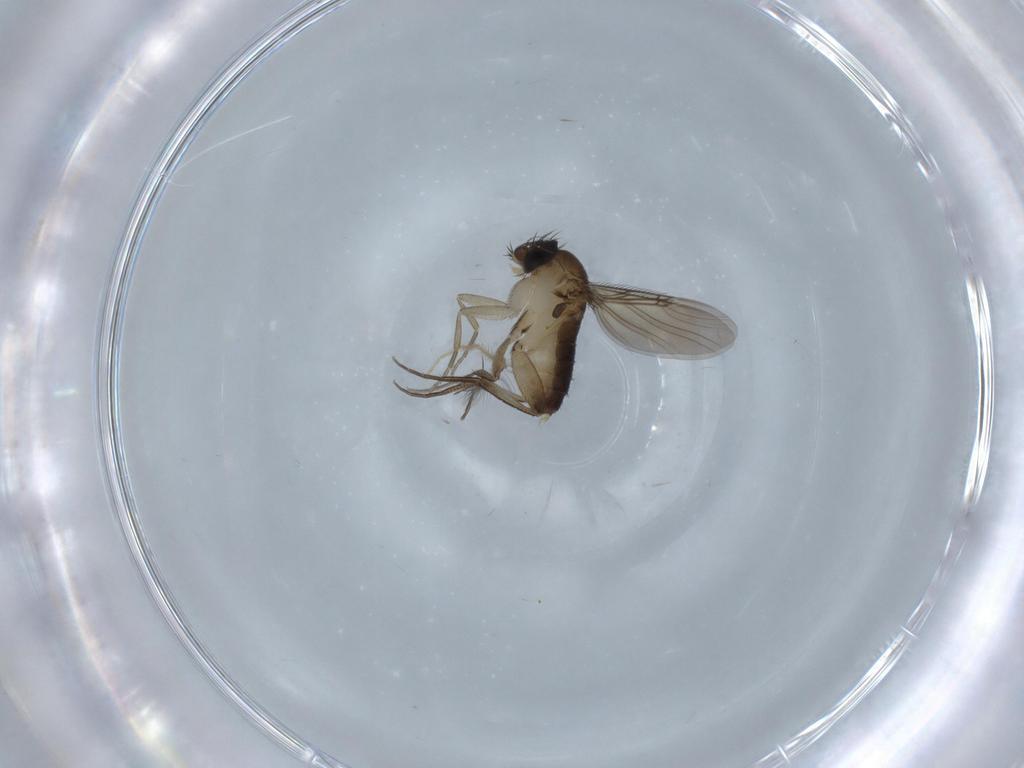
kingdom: Animalia
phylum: Arthropoda
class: Insecta
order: Diptera
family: Phoridae
